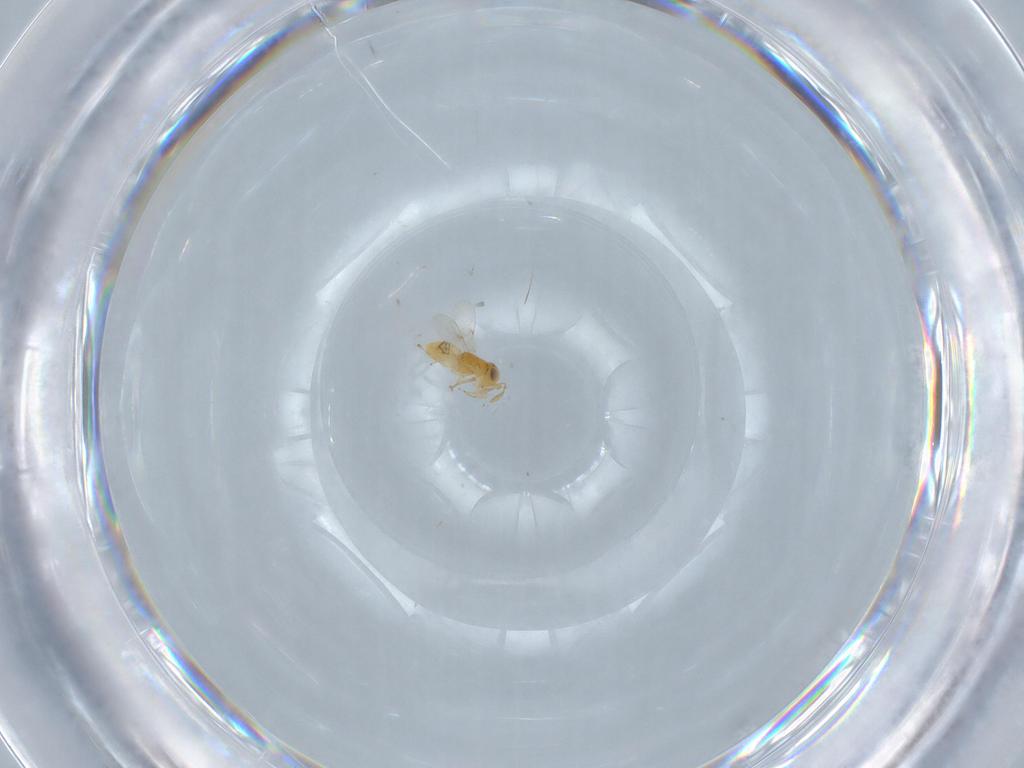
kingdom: Animalia
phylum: Arthropoda
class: Insecta
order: Hymenoptera
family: Encyrtidae
